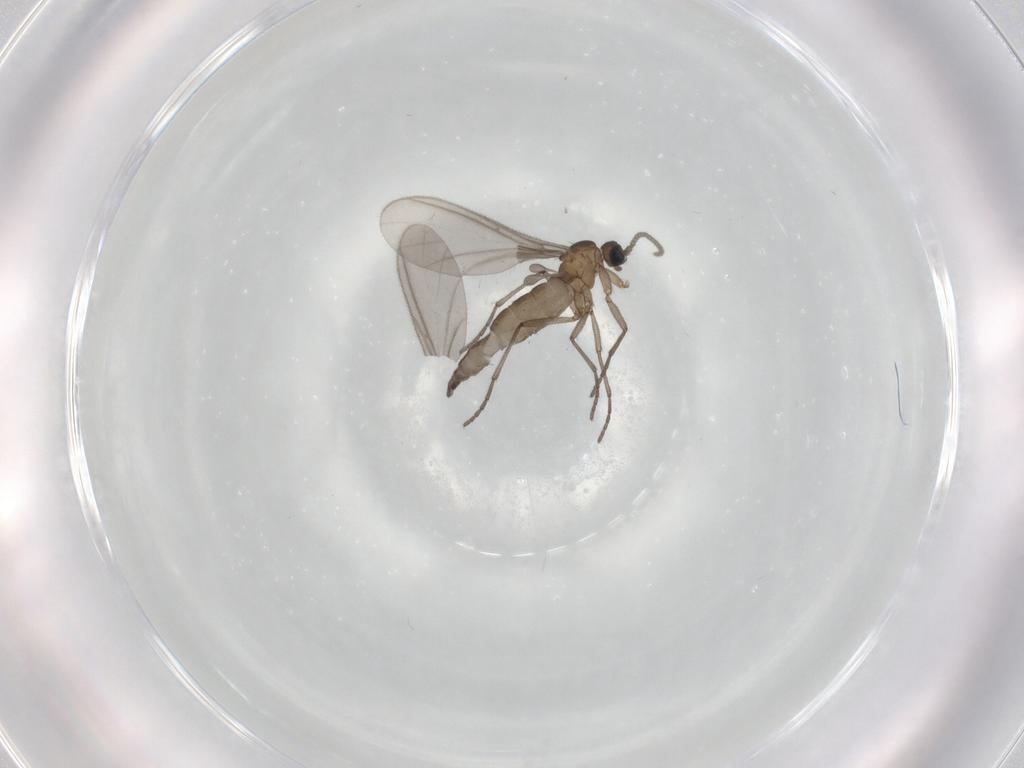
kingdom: Animalia
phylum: Arthropoda
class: Insecta
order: Diptera
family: Sciaridae
